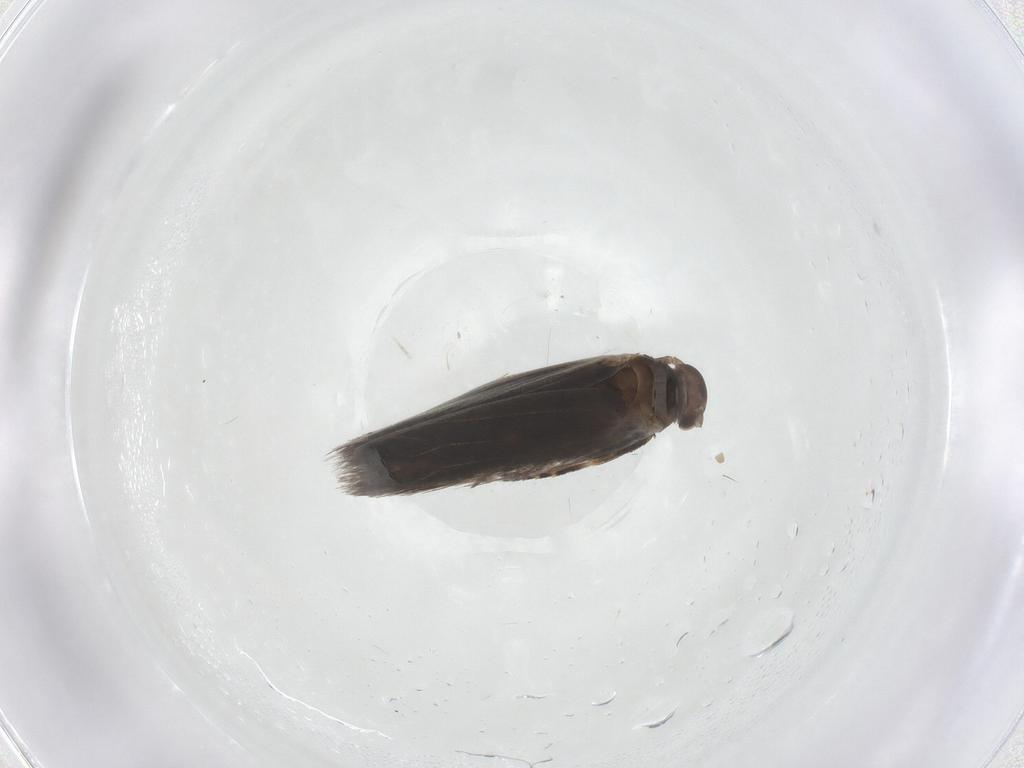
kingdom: Animalia
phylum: Arthropoda
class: Insecta
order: Lepidoptera
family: Elachistidae
